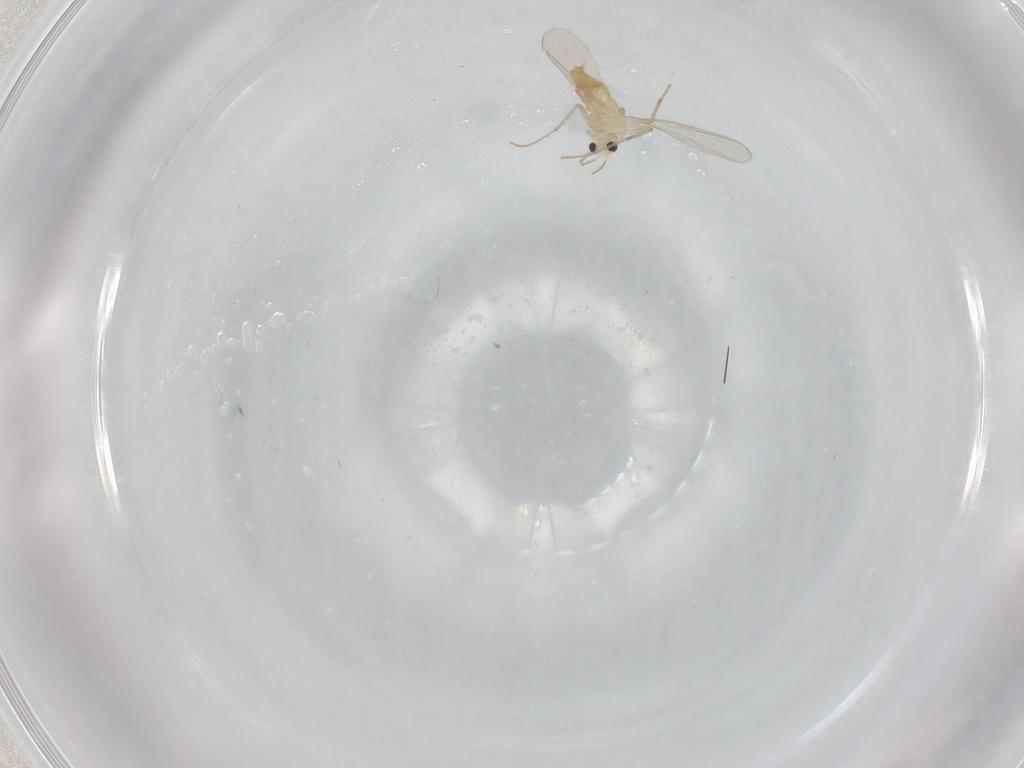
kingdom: Animalia
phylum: Arthropoda
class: Insecta
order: Diptera
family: Chironomidae
